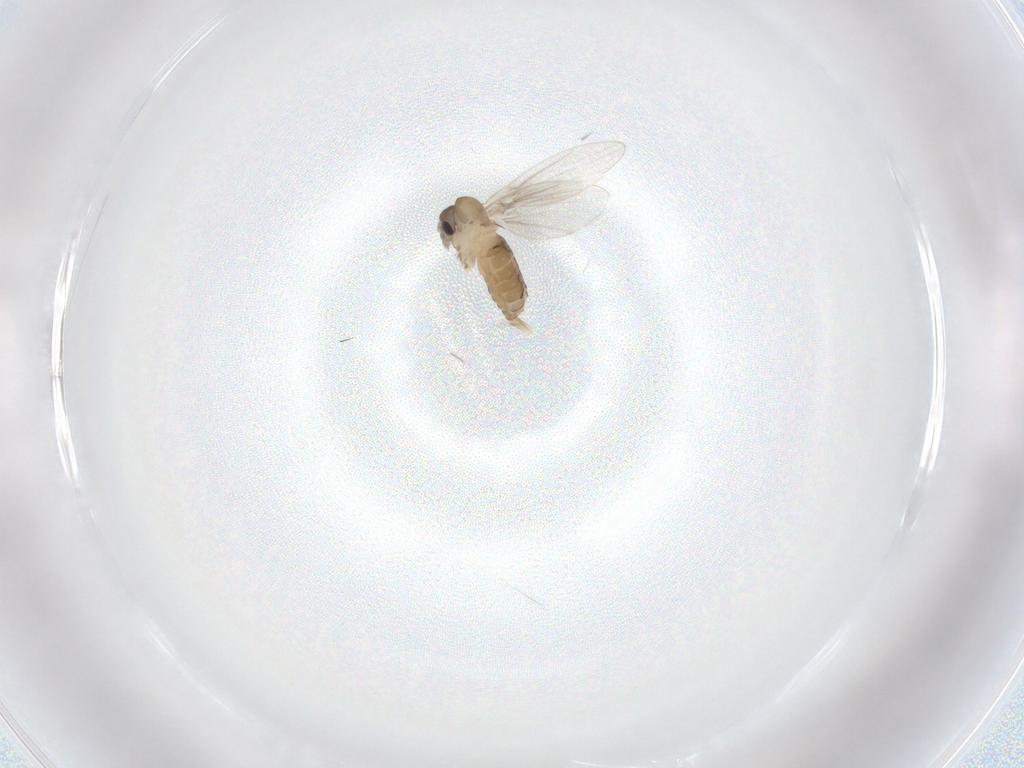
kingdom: Animalia
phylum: Arthropoda
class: Insecta
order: Diptera
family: Psychodidae
